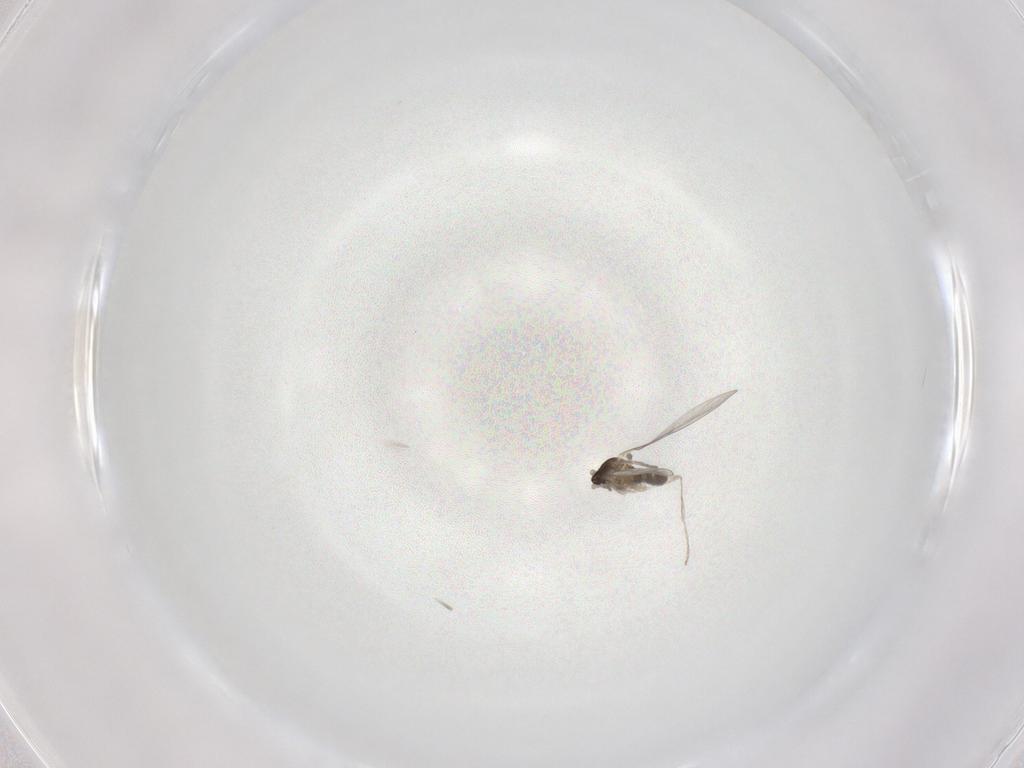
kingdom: Animalia
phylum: Arthropoda
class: Insecta
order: Diptera
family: Cecidomyiidae
